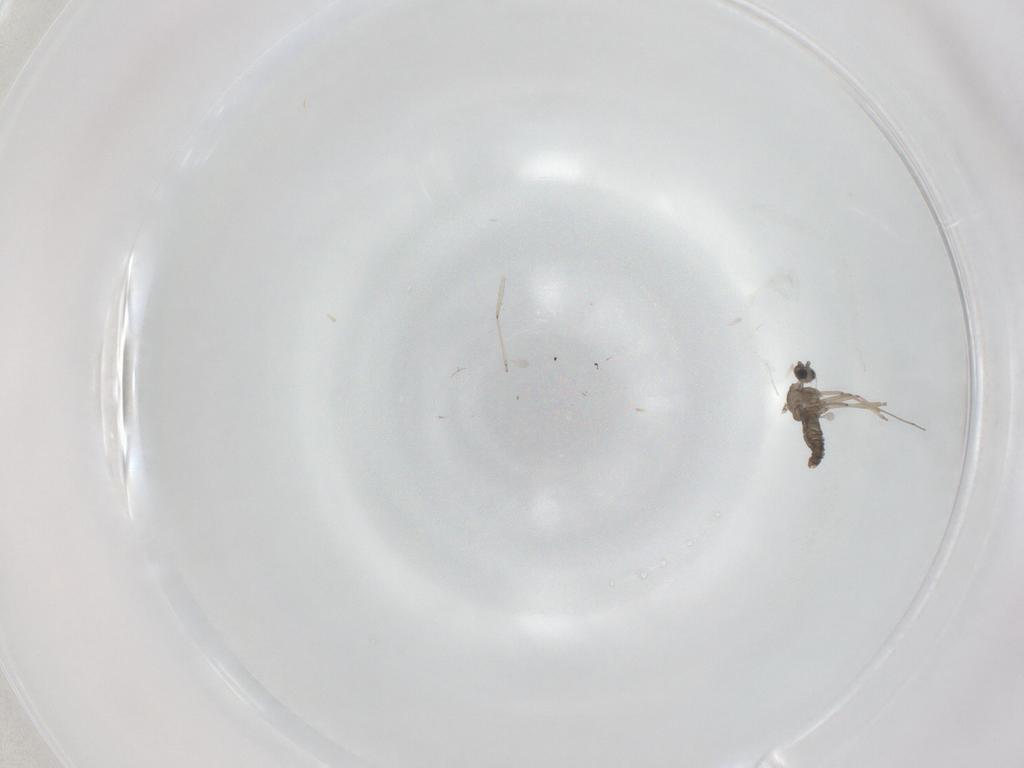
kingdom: Animalia
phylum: Arthropoda
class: Insecta
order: Diptera
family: Cecidomyiidae
